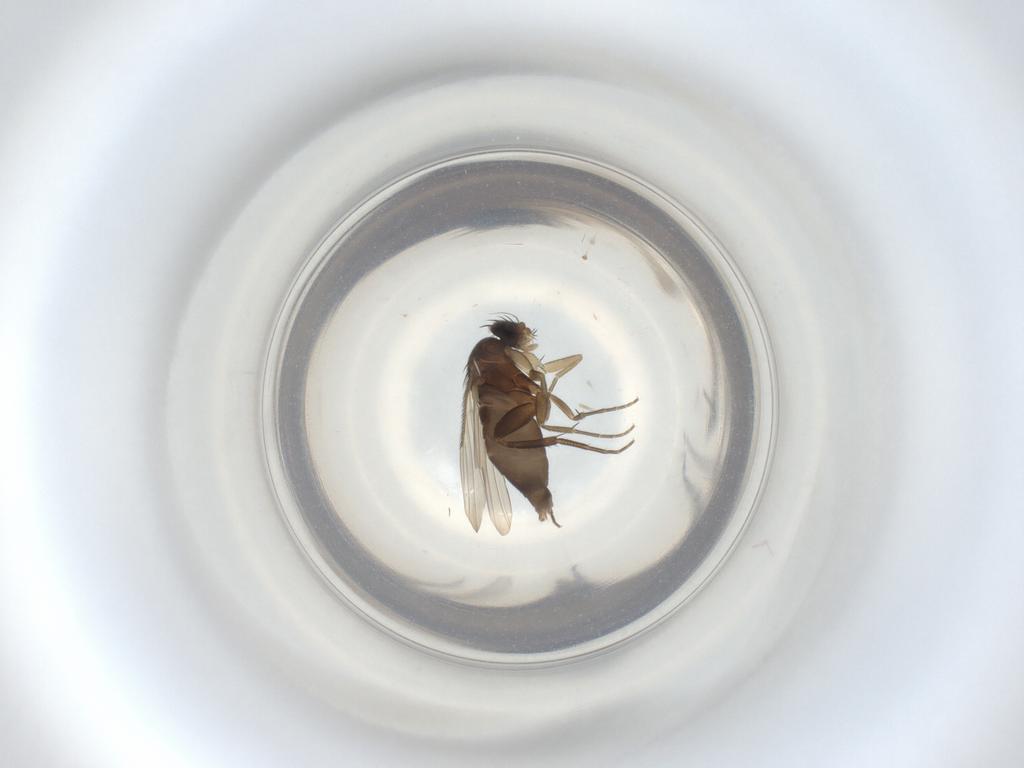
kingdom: Animalia
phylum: Arthropoda
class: Insecta
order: Diptera
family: Phoridae
